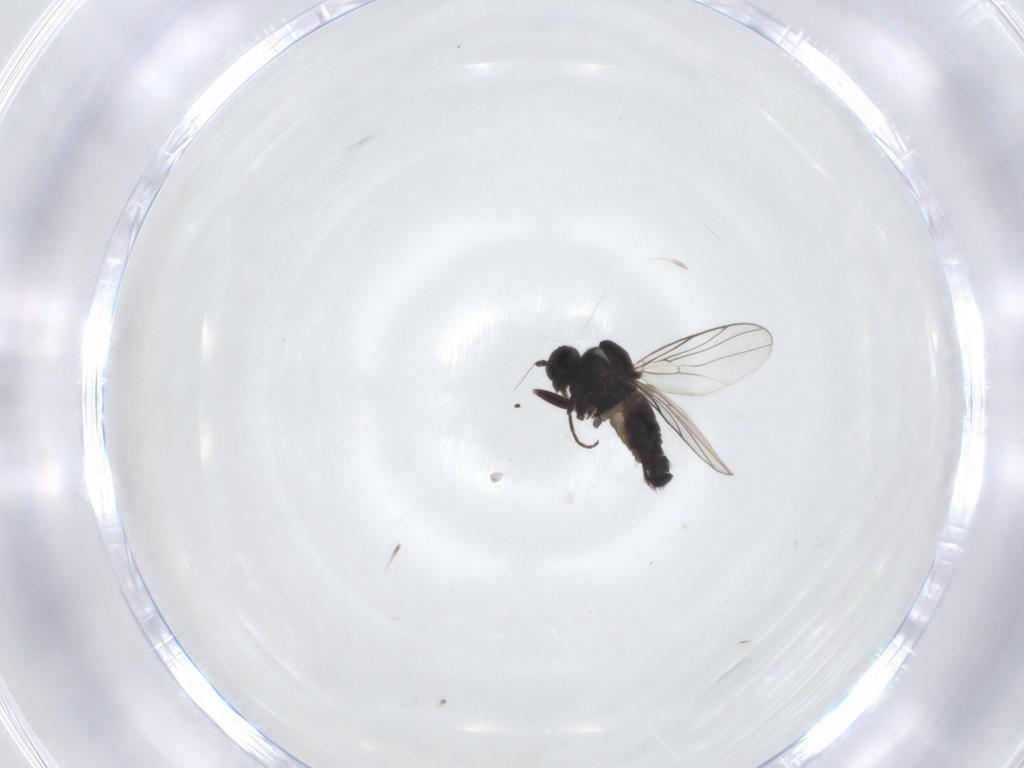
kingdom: Animalia
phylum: Arthropoda
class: Insecta
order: Diptera
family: Hybotidae
